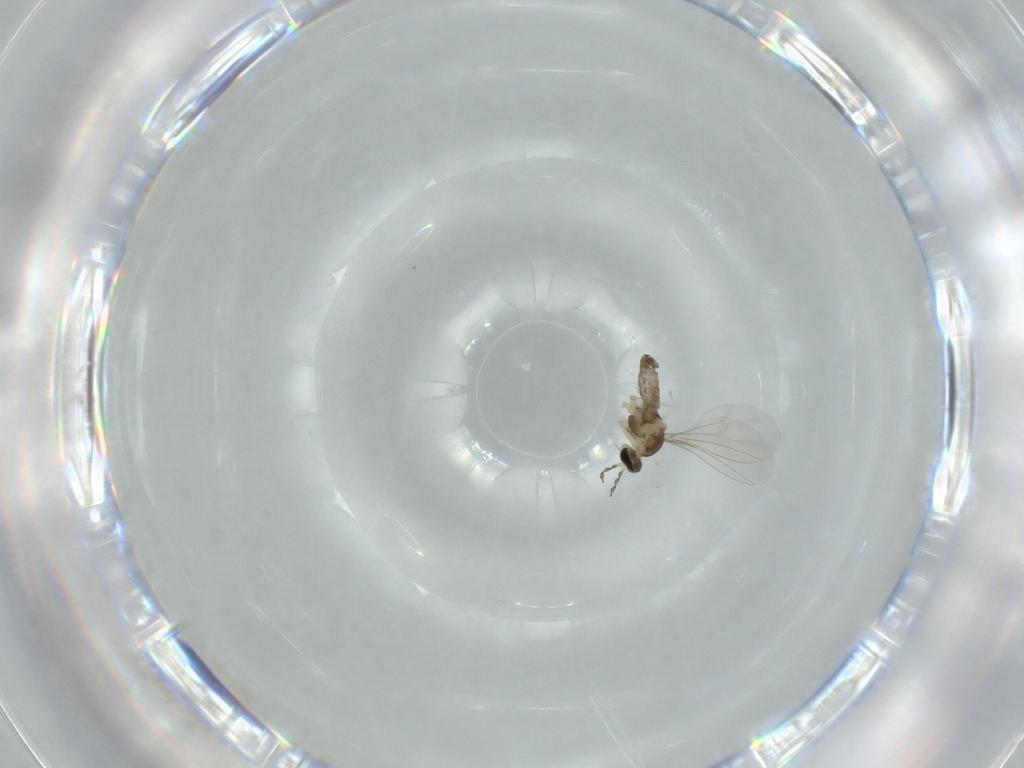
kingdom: Animalia
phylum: Arthropoda
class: Insecta
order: Diptera
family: Cecidomyiidae
